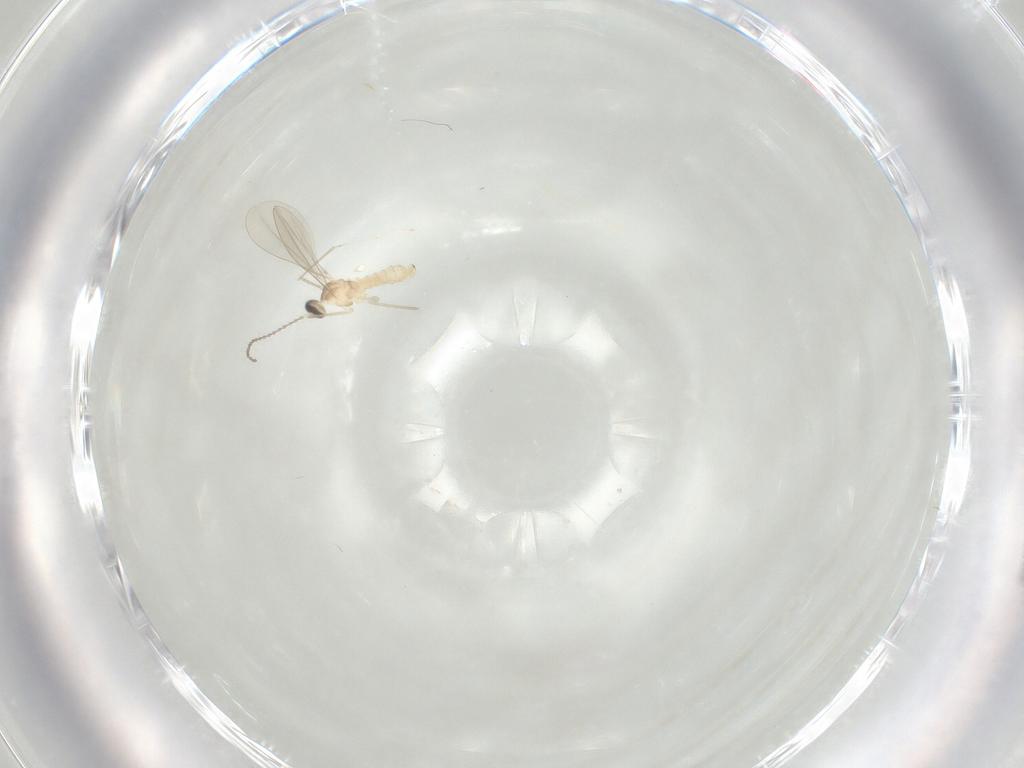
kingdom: Animalia
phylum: Arthropoda
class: Insecta
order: Diptera
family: Cecidomyiidae
